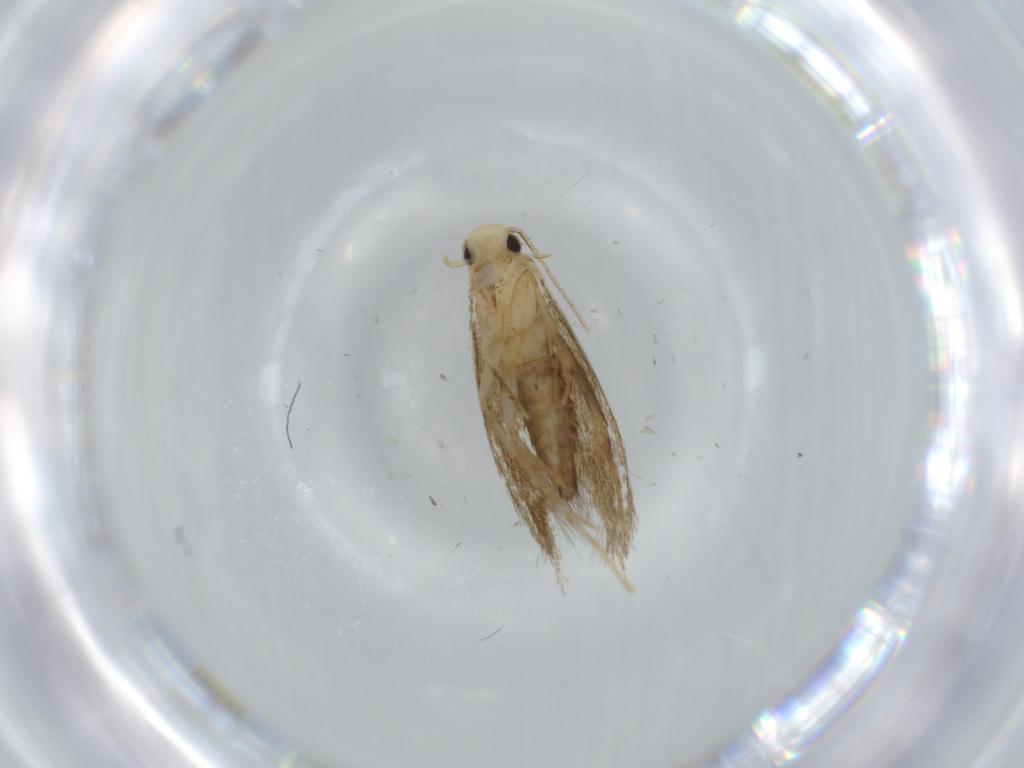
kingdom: Animalia
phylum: Arthropoda
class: Insecta
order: Lepidoptera
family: Tineidae
